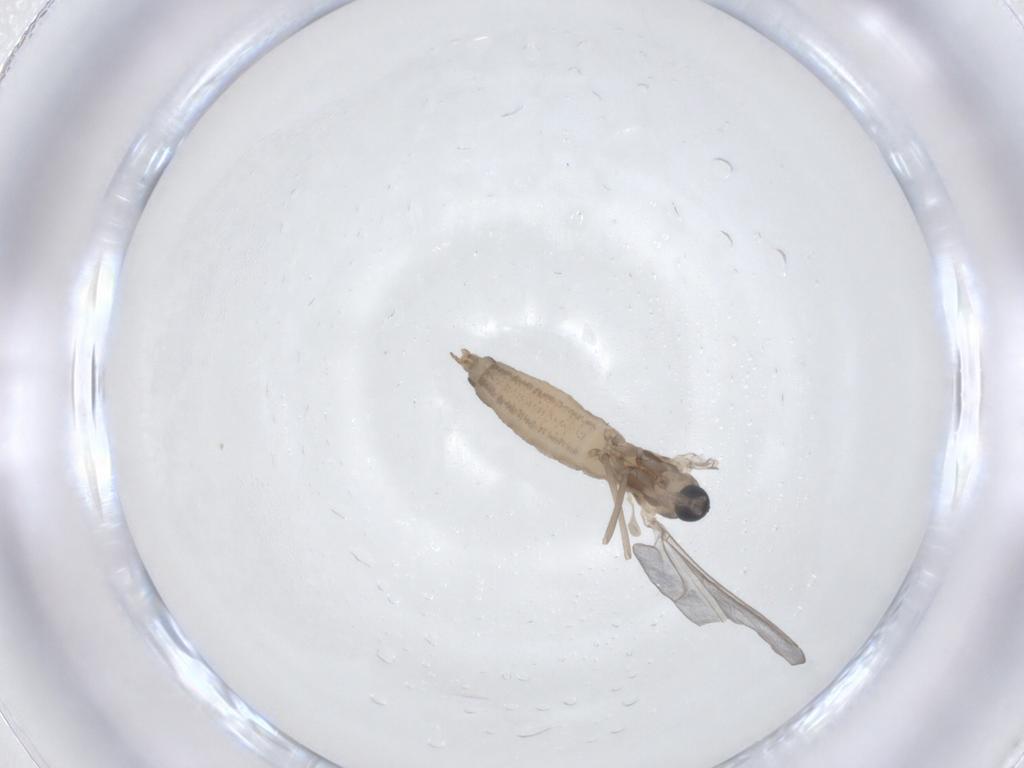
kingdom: Animalia
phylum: Arthropoda
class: Insecta
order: Diptera
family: Cecidomyiidae
